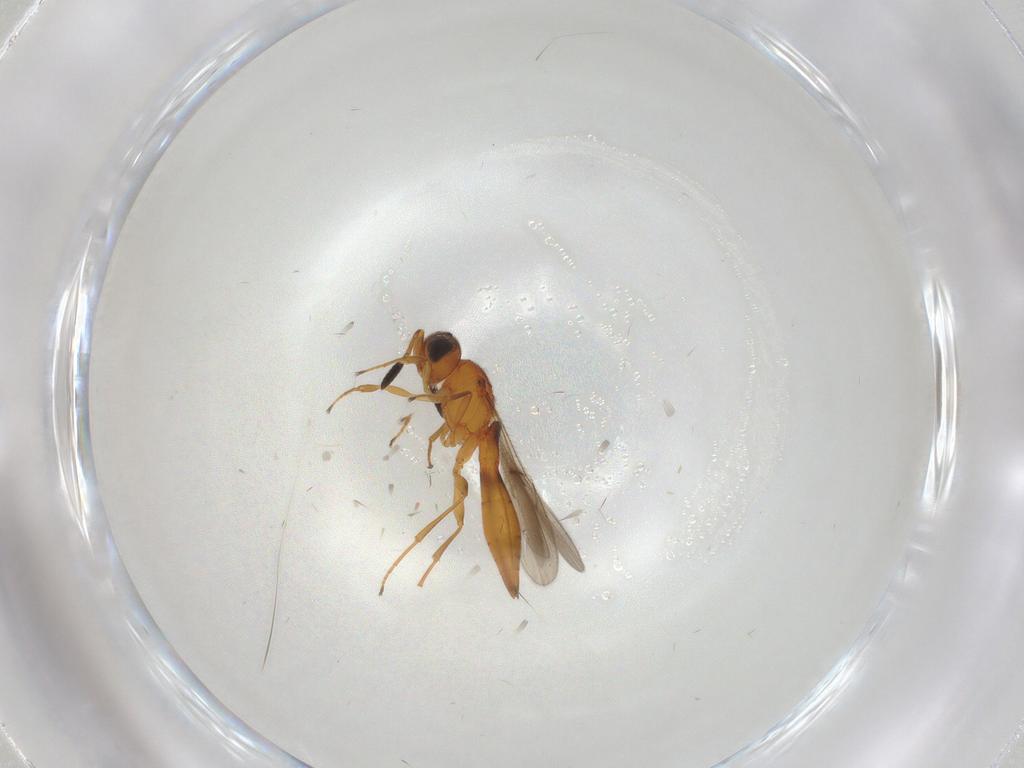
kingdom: Animalia
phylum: Arthropoda
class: Insecta
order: Hymenoptera
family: Scelionidae
